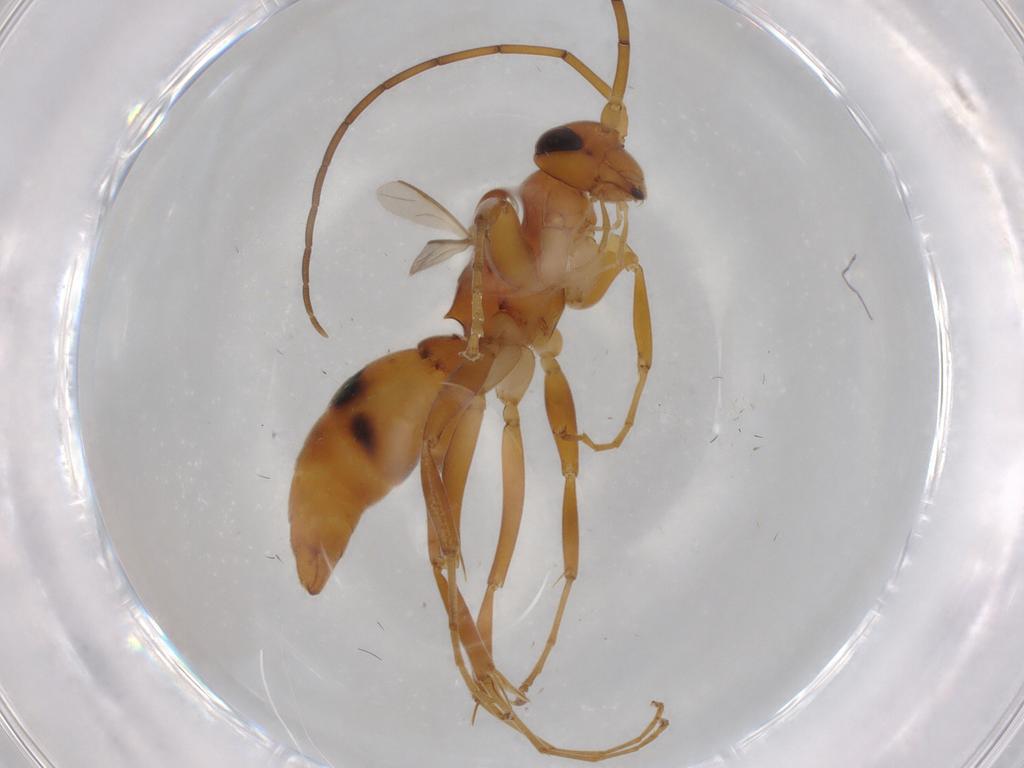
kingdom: Animalia
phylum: Arthropoda
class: Insecta
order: Hymenoptera
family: Rhopalosomatidae
